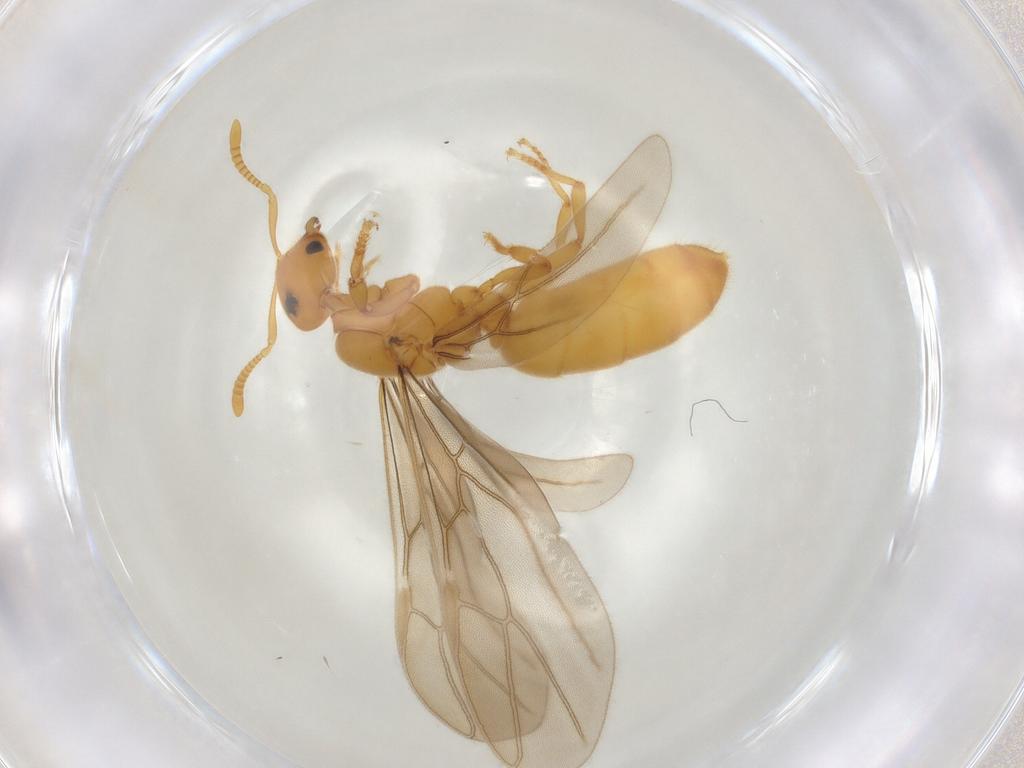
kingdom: Animalia
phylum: Arthropoda
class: Insecta
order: Hymenoptera
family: Formicidae
